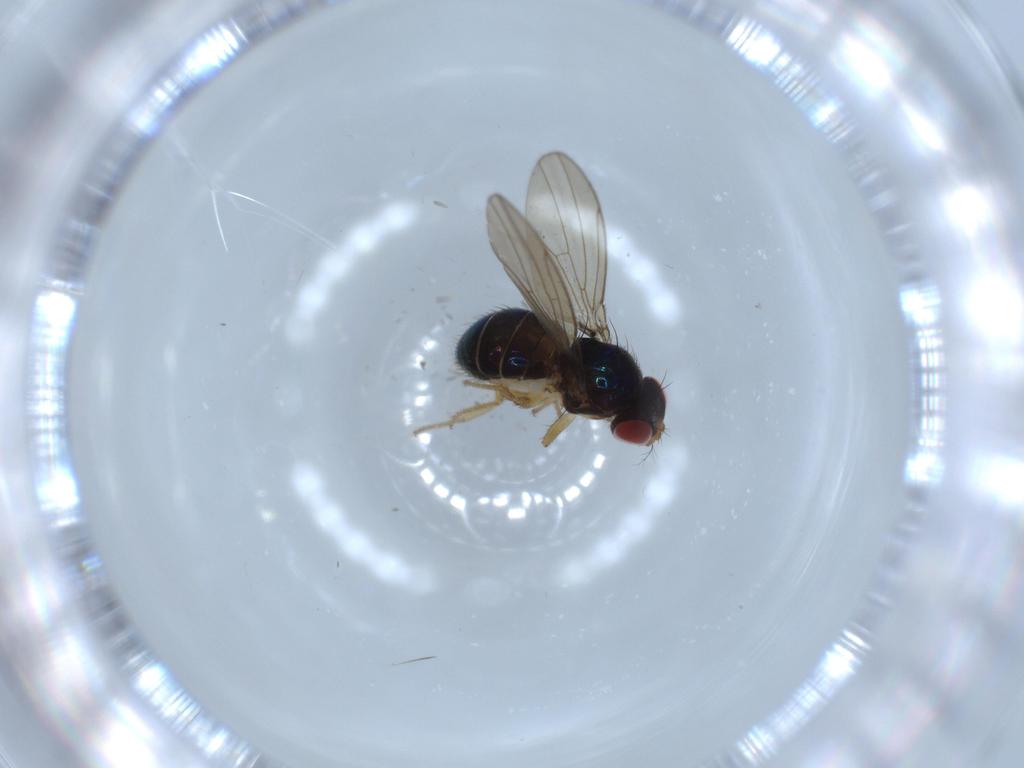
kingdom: Animalia
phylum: Arthropoda
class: Insecta
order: Diptera
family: Drosophilidae
